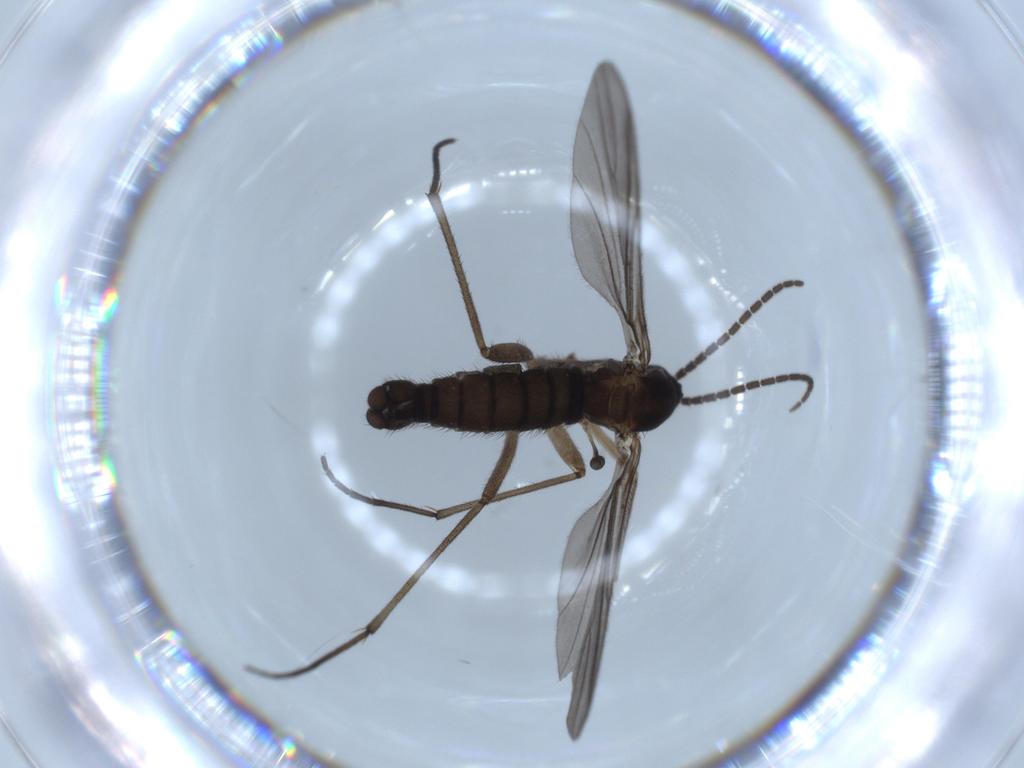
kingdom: Animalia
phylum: Arthropoda
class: Insecta
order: Diptera
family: Sciaridae
